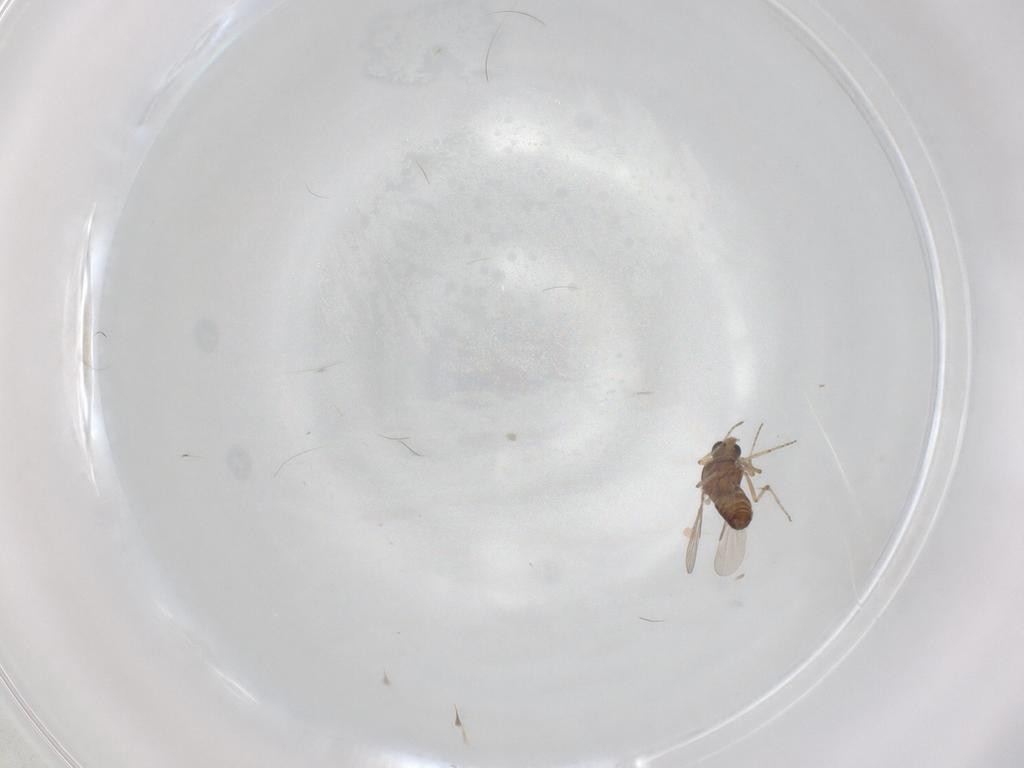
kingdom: Animalia
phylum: Arthropoda
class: Insecta
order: Diptera
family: Ceratopogonidae
